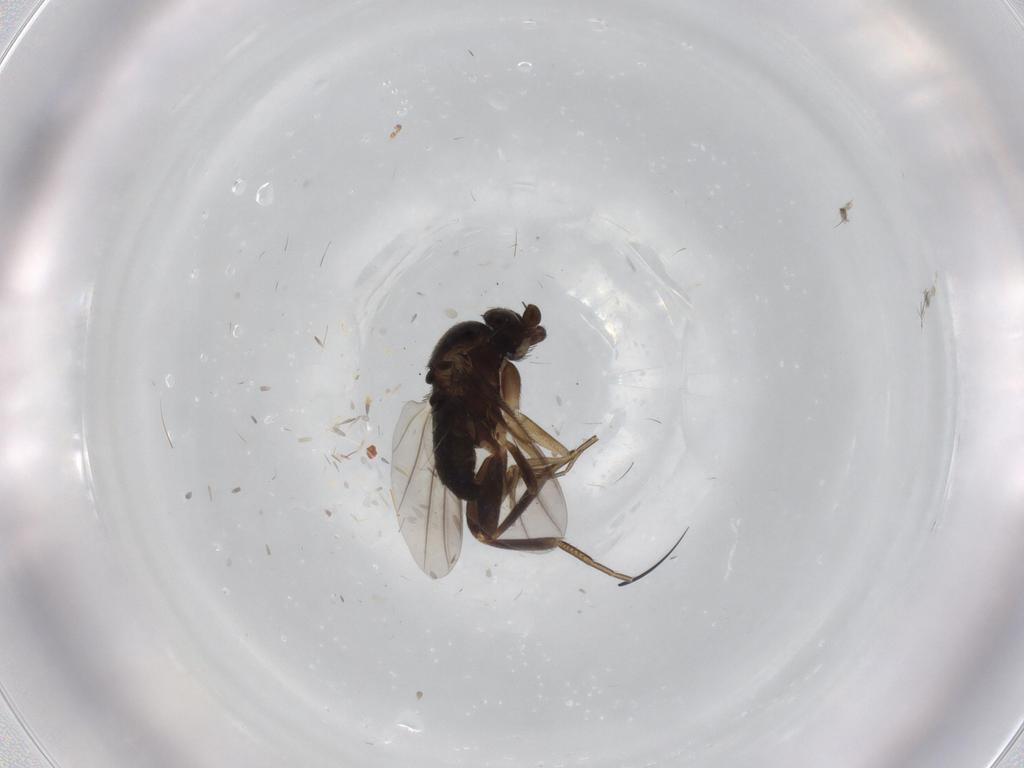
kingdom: Animalia
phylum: Arthropoda
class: Insecta
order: Diptera
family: Phoridae
